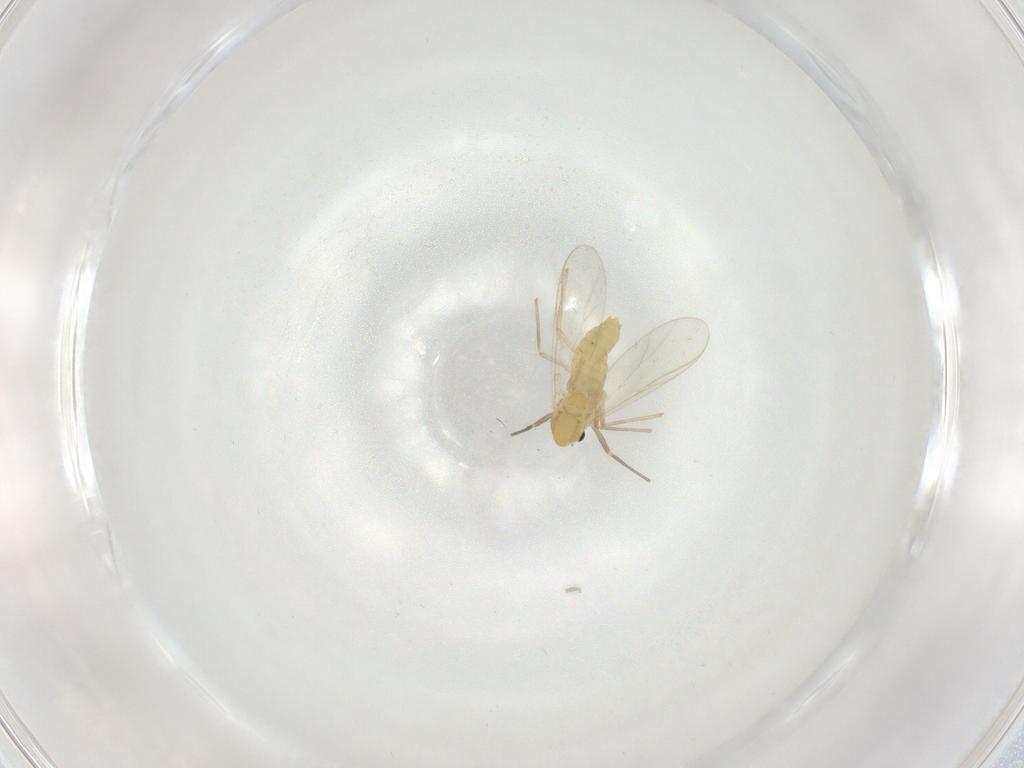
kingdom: Animalia
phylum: Arthropoda
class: Insecta
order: Diptera
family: Chironomidae
